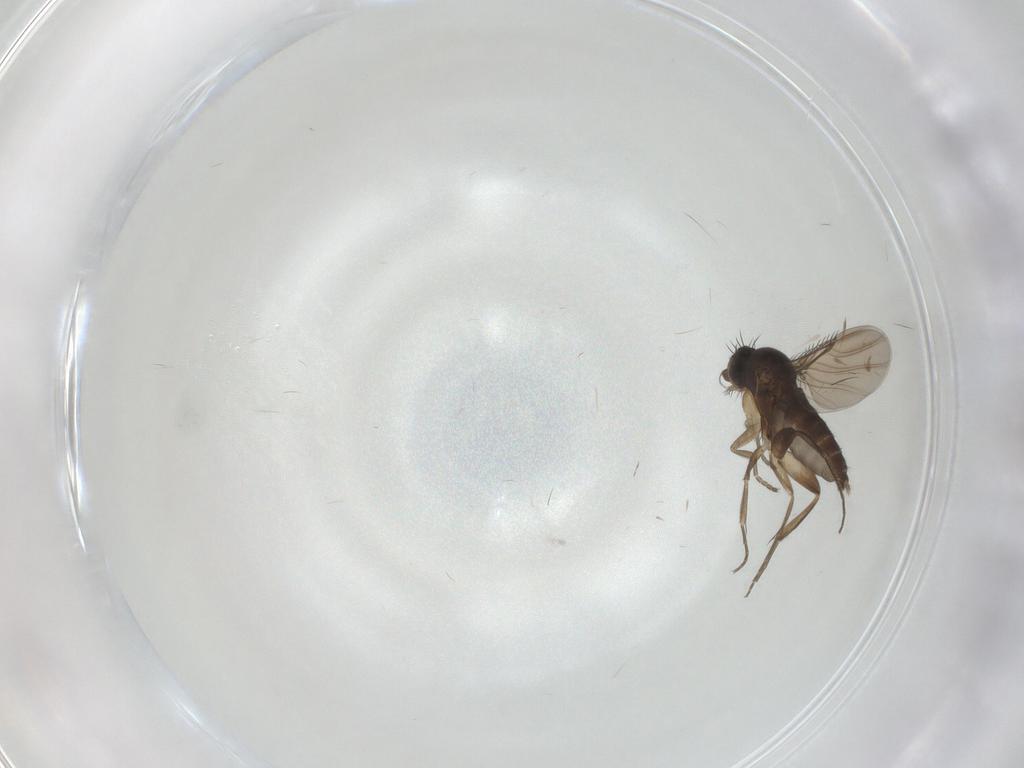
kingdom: Animalia
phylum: Arthropoda
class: Insecta
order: Diptera
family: Phoridae
